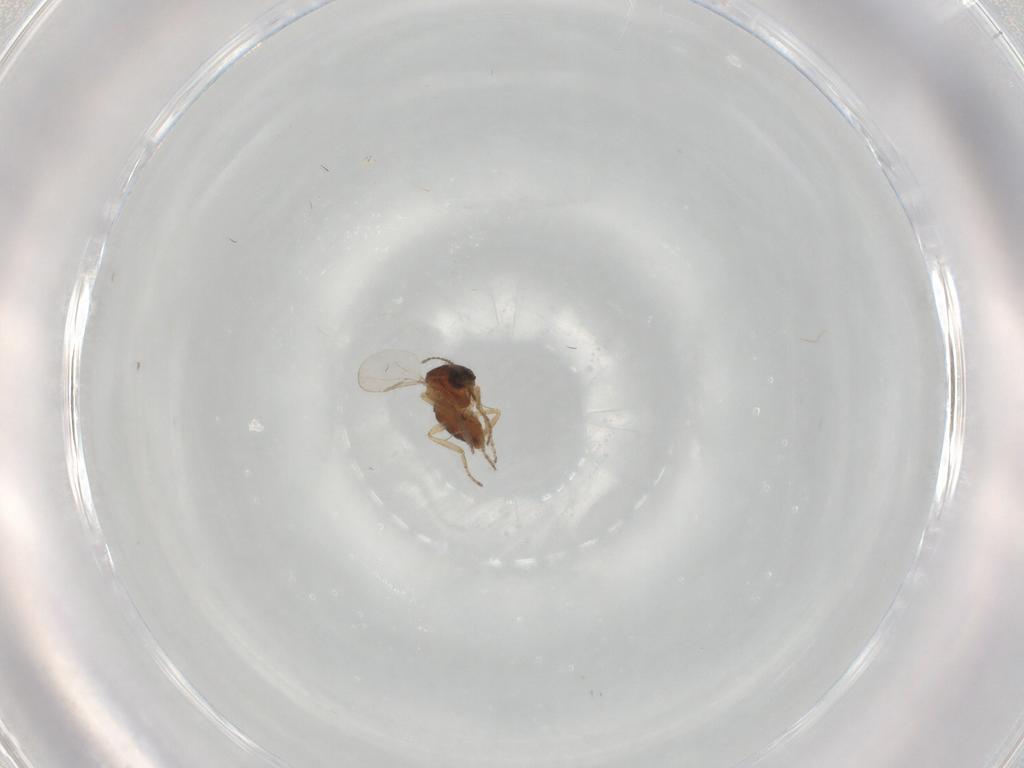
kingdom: Animalia
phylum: Arthropoda
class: Insecta
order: Diptera
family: Ceratopogonidae
